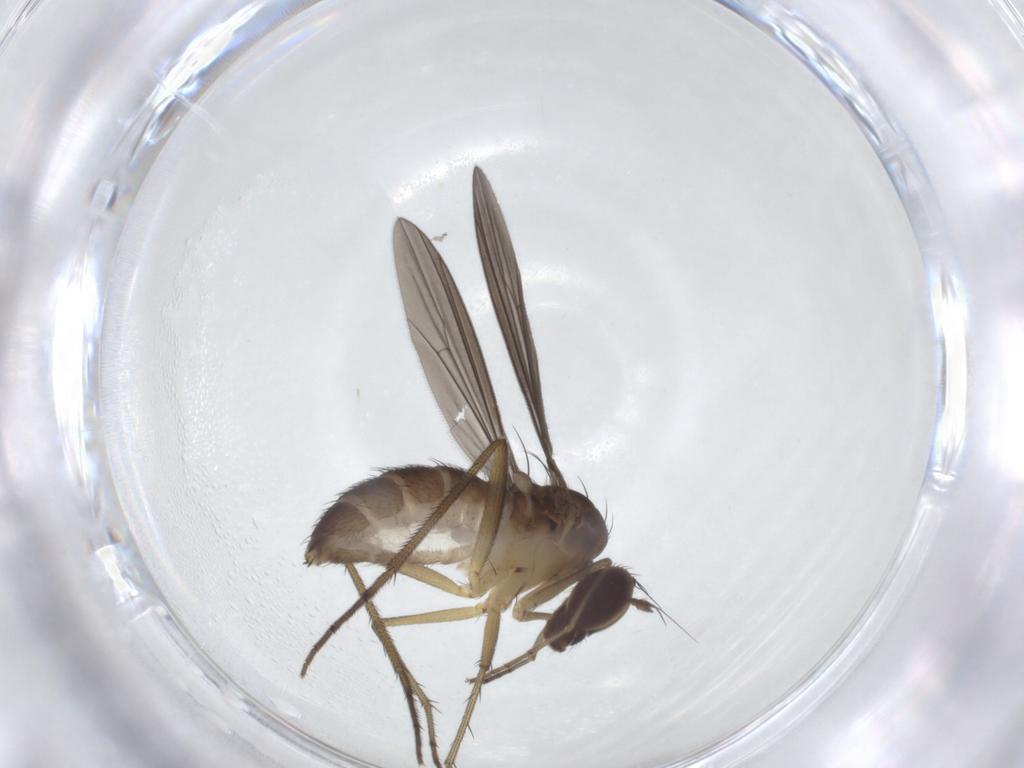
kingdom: Animalia
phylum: Arthropoda
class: Insecta
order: Diptera
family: Dolichopodidae
